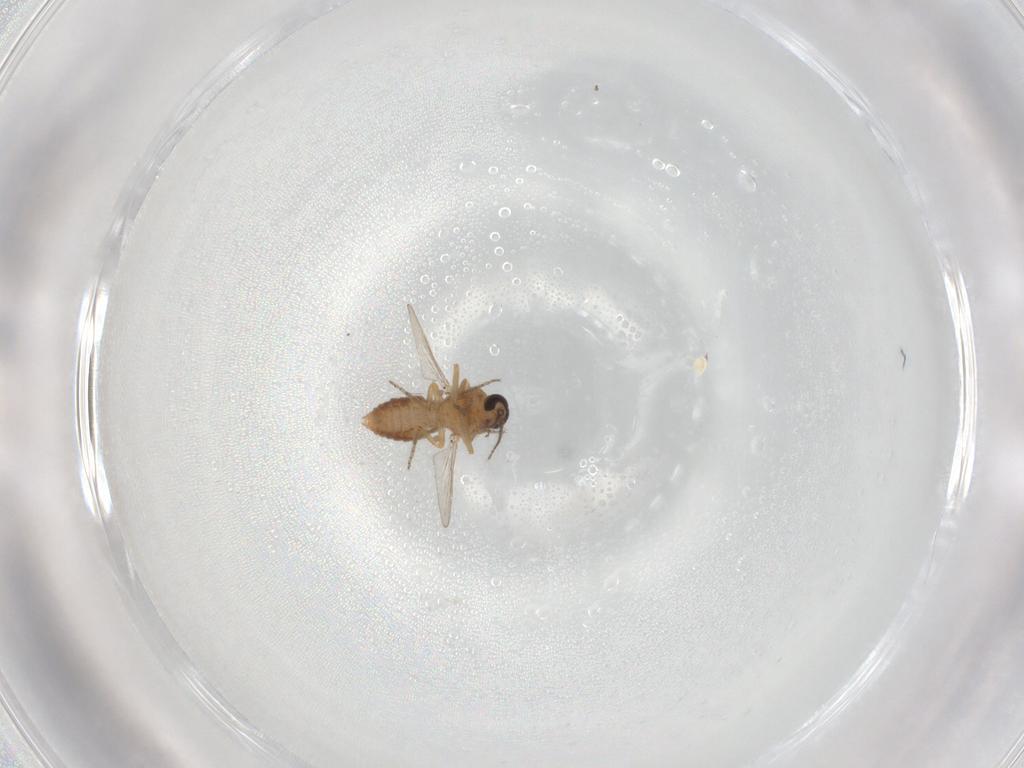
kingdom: Animalia
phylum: Arthropoda
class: Insecta
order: Diptera
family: Ceratopogonidae
